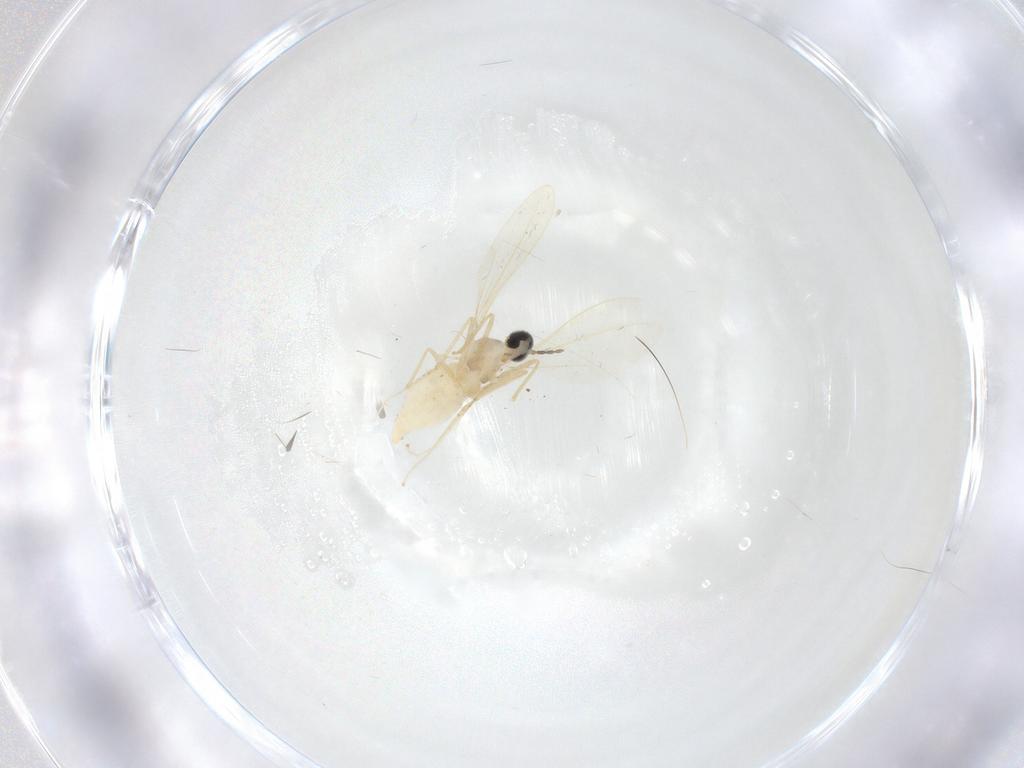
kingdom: Animalia
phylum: Arthropoda
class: Insecta
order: Diptera
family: Cecidomyiidae
